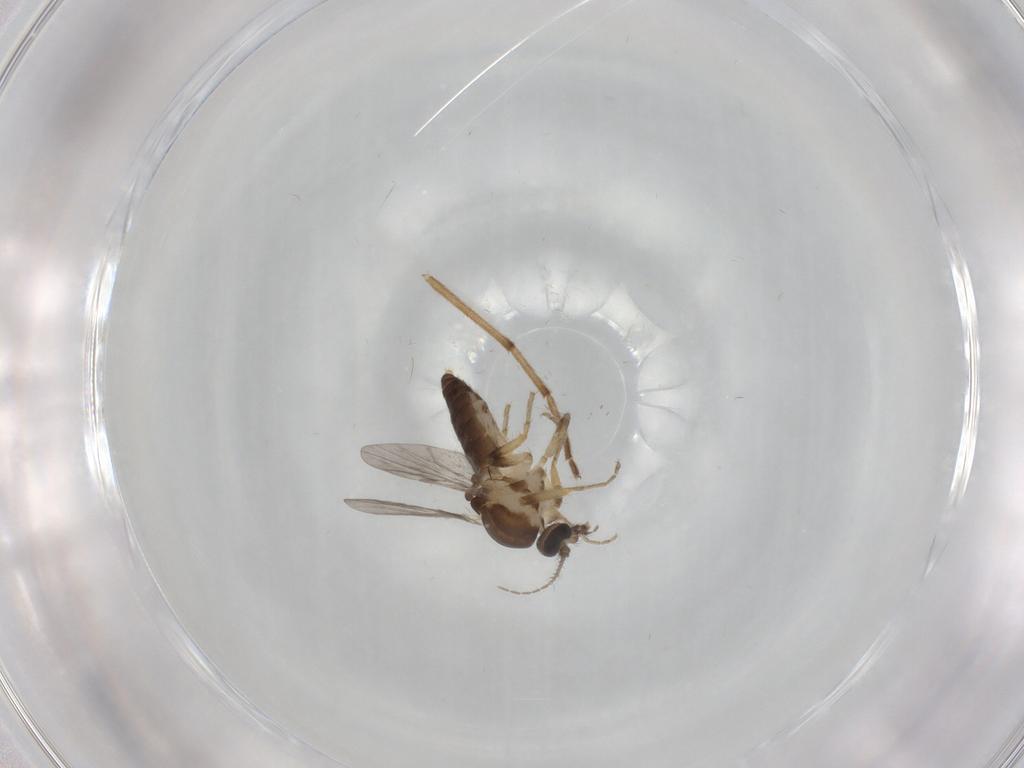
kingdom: Animalia
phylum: Arthropoda
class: Insecta
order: Diptera
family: Ceratopogonidae
